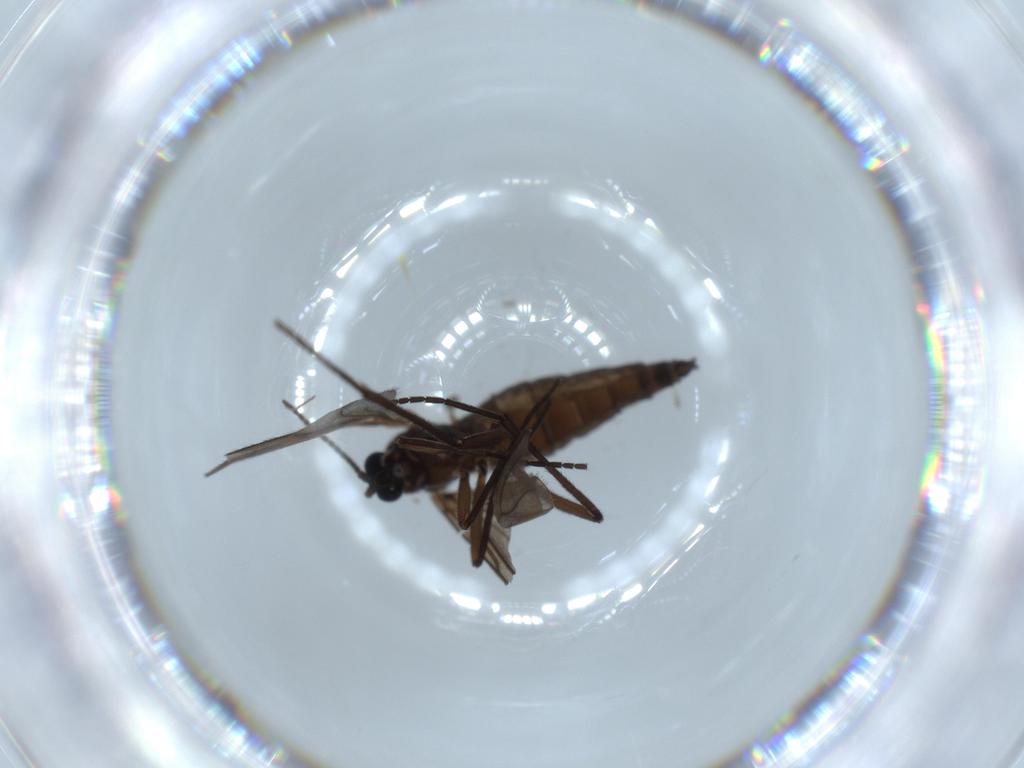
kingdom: Animalia
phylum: Arthropoda
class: Insecta
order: Diptera
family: Sciaridae
